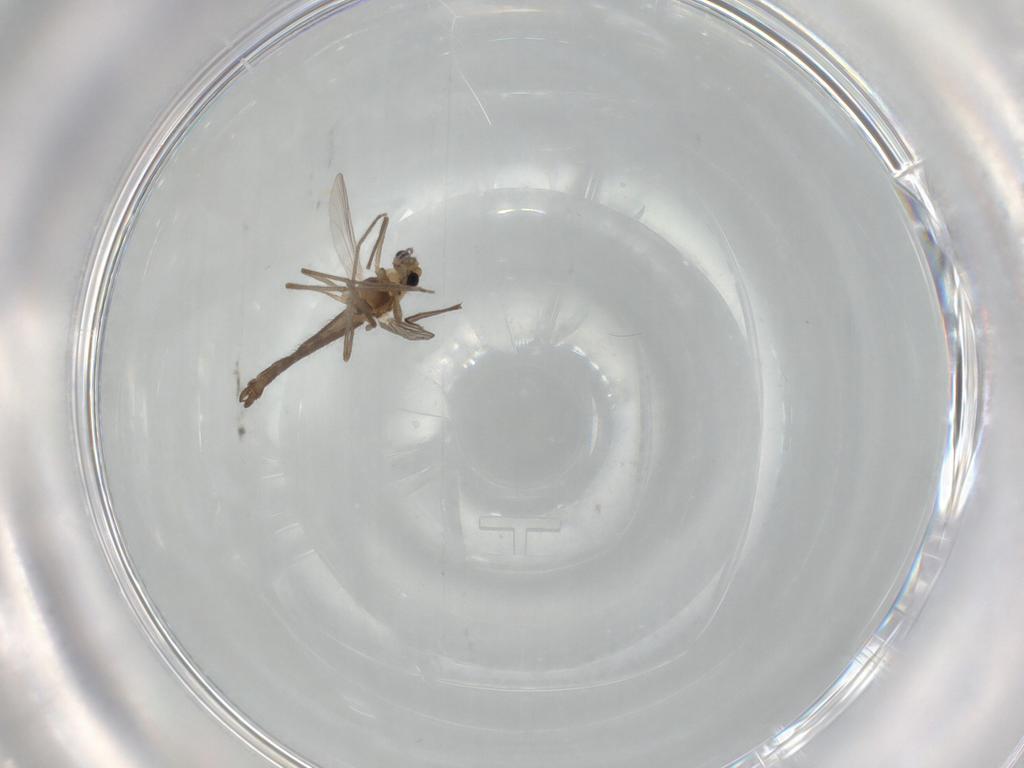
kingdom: Animalia
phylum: Arthropoda
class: Insecta
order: Diptera
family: Chironomidae
